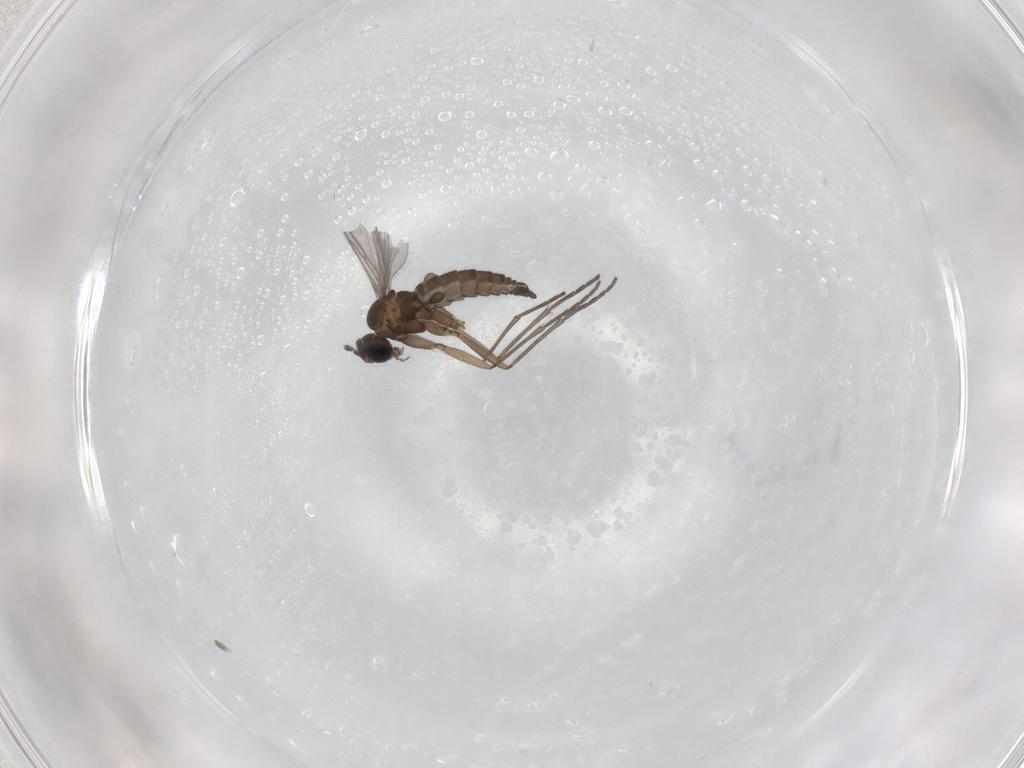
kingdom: Animalia
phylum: Arthropoda
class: Insecta
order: Diptera
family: Sciaridae
